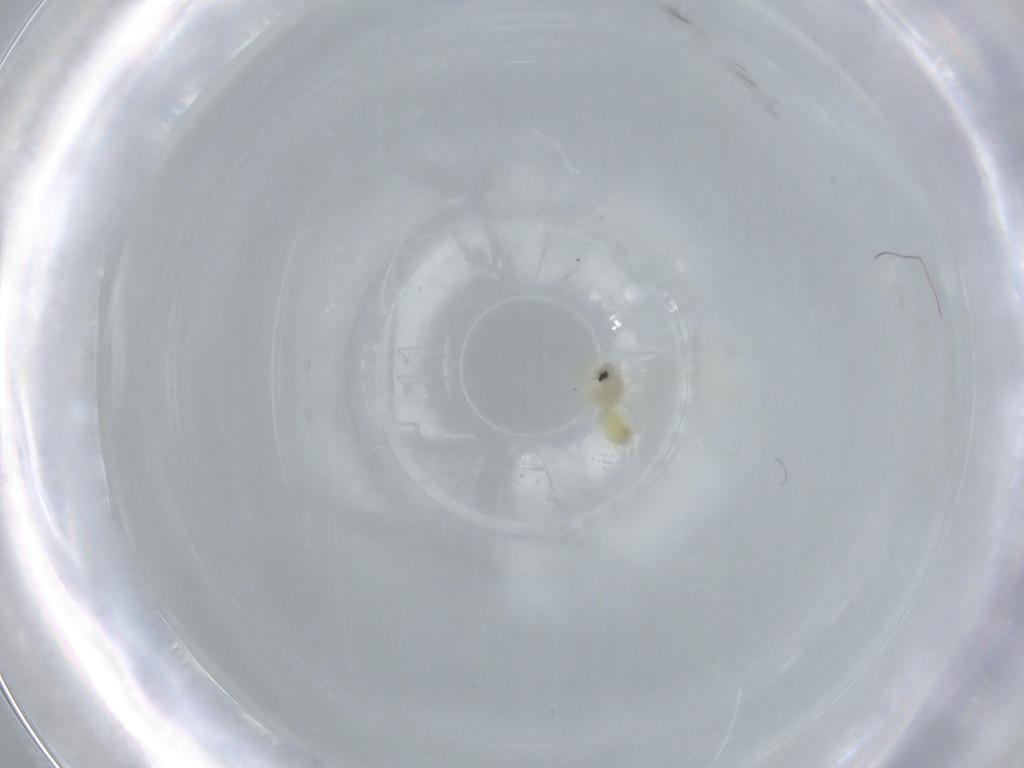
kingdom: Animalia
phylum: Arthropoda
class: Insecta
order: Hemiptera
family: Aleyrodidae
